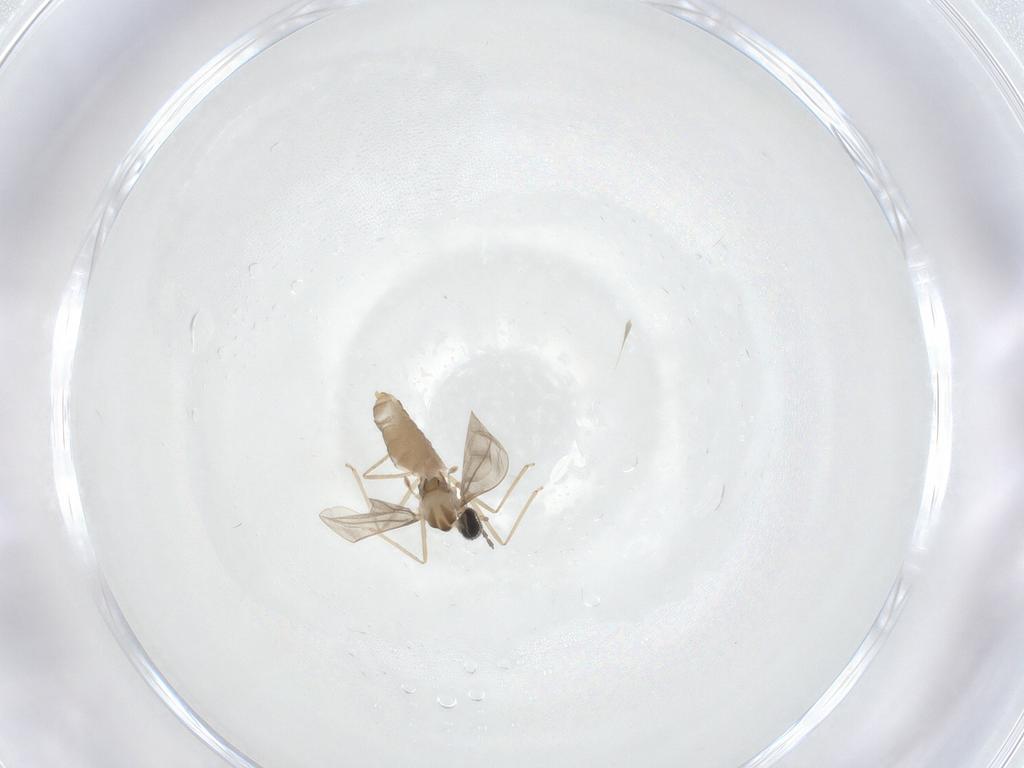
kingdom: Animalia
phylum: Arthropoda
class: Insecta
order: Diptera
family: Cecidomyiidae
